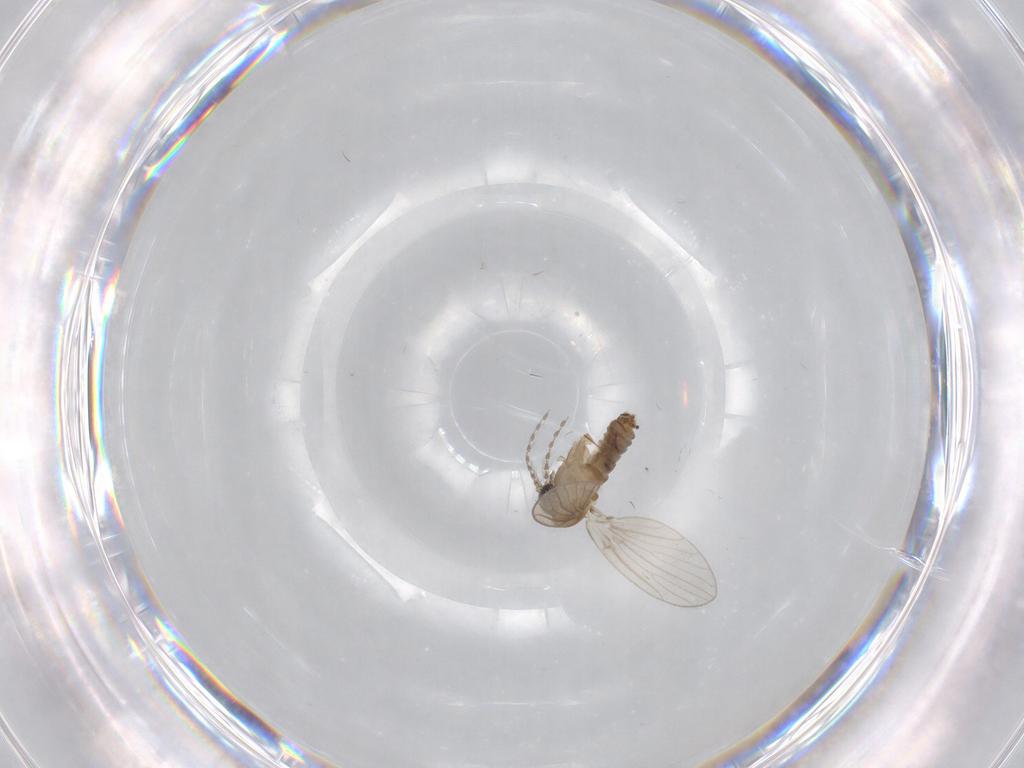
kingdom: Animalia
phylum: Arthropoda
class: Insecta
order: Diptera
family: Psychodidae
